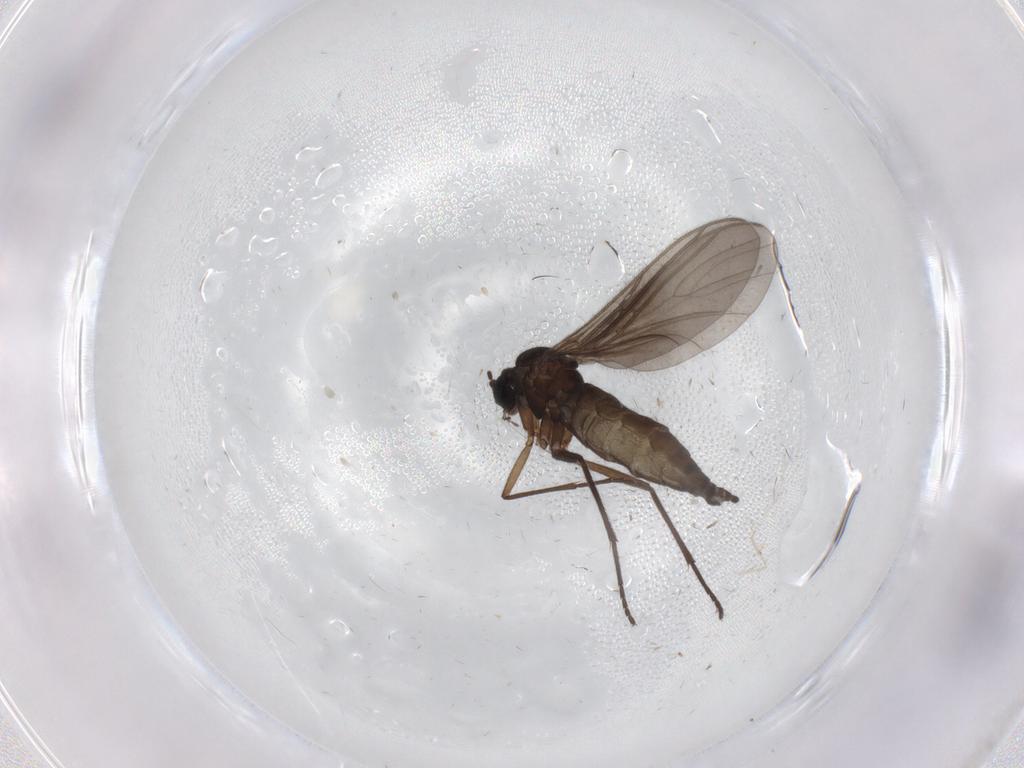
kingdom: Animalia
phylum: Arthropoda
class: Insecta
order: Diptera
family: Sciaridae
